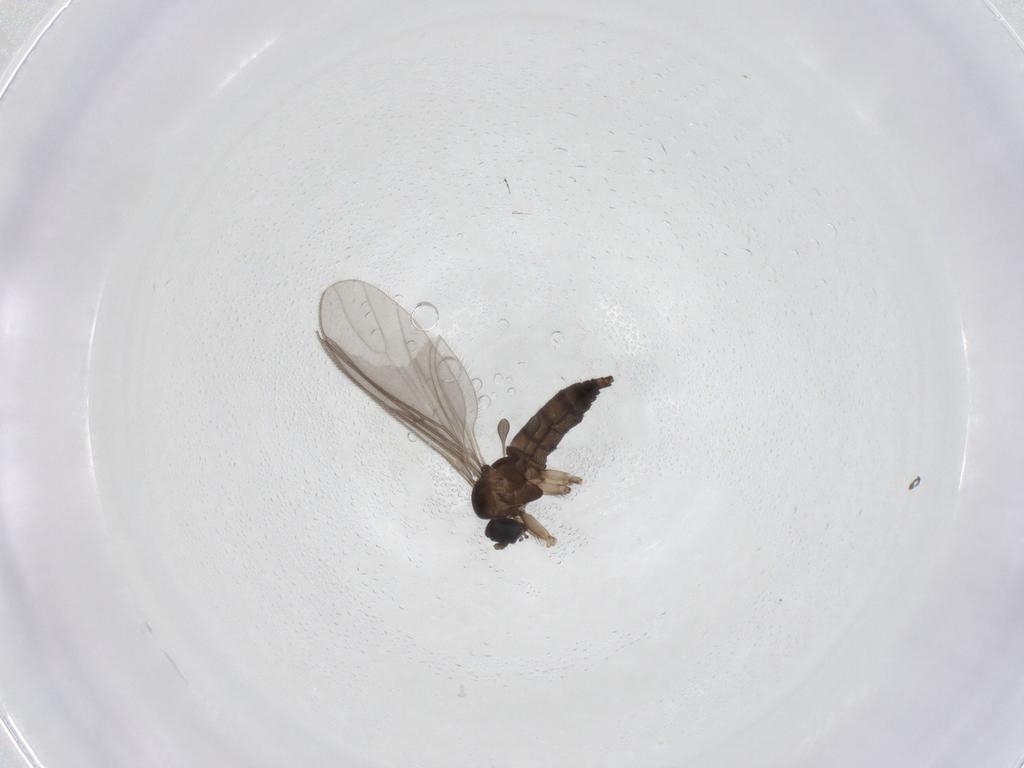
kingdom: Animalia
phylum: Arthropoda
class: Insecta
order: Diptera
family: Sciaridae
